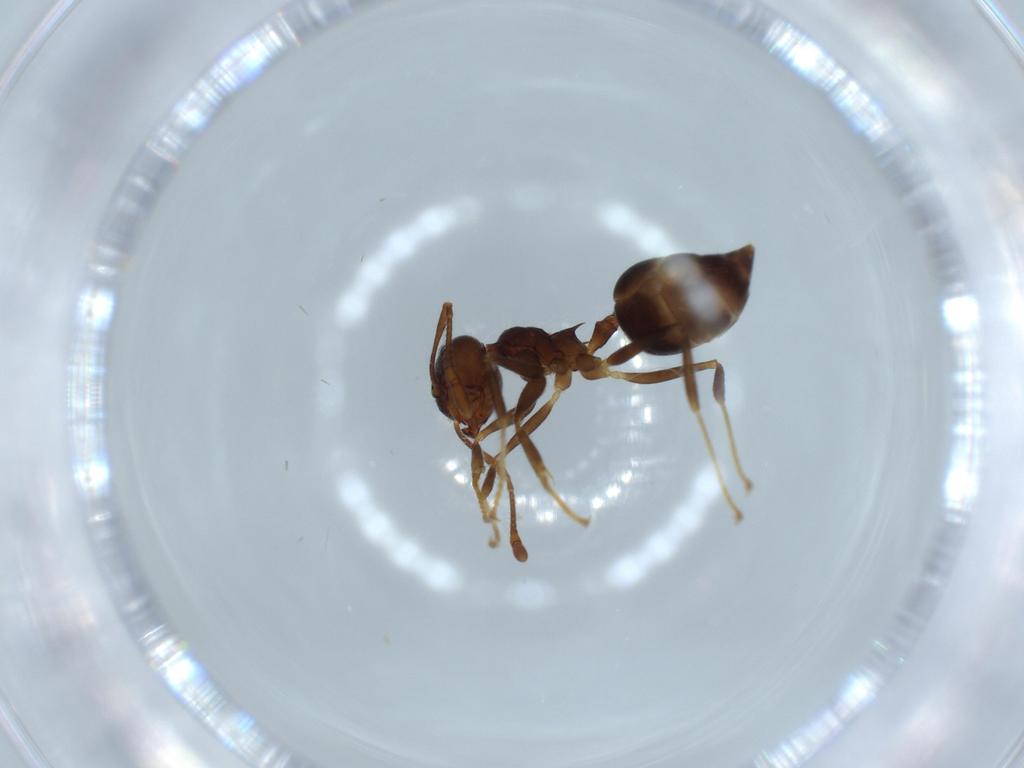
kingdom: Animalia
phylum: Arthropoda
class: Insecta
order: Hymenoptera
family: Formicidae
